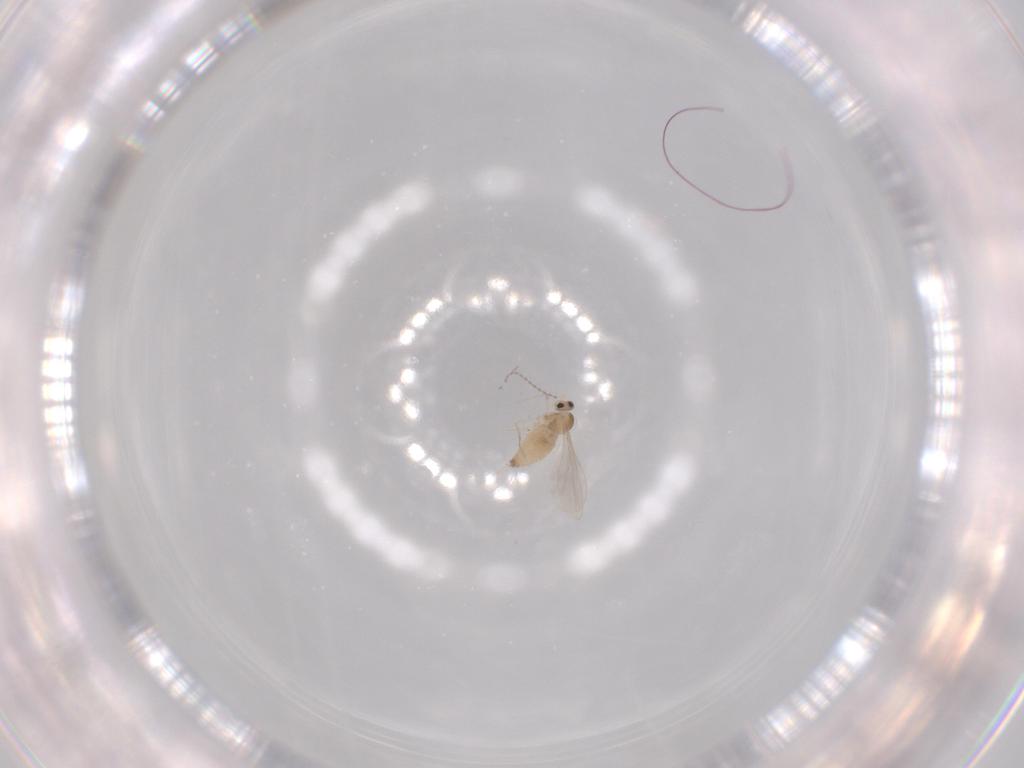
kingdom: Animalia
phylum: Arthropoda
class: Insecta
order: Diptera
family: Cecidomyiidae
